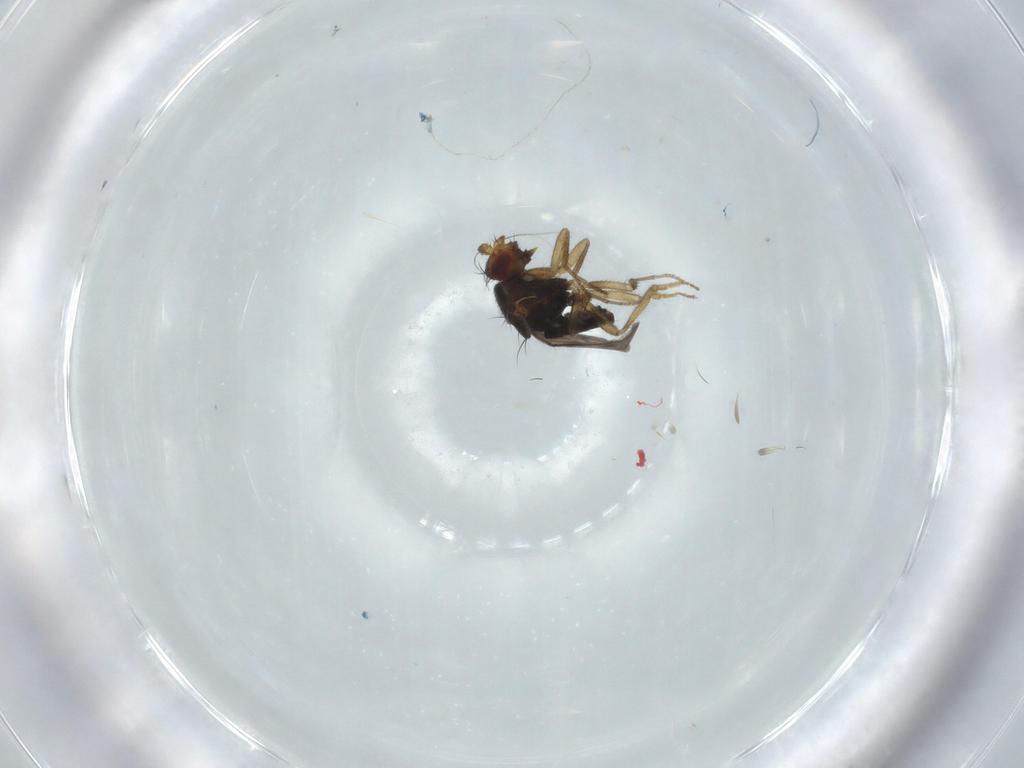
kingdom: Animalia
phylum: Arthropoda
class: Insecta
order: Diptera
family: Sphaeroceridae
